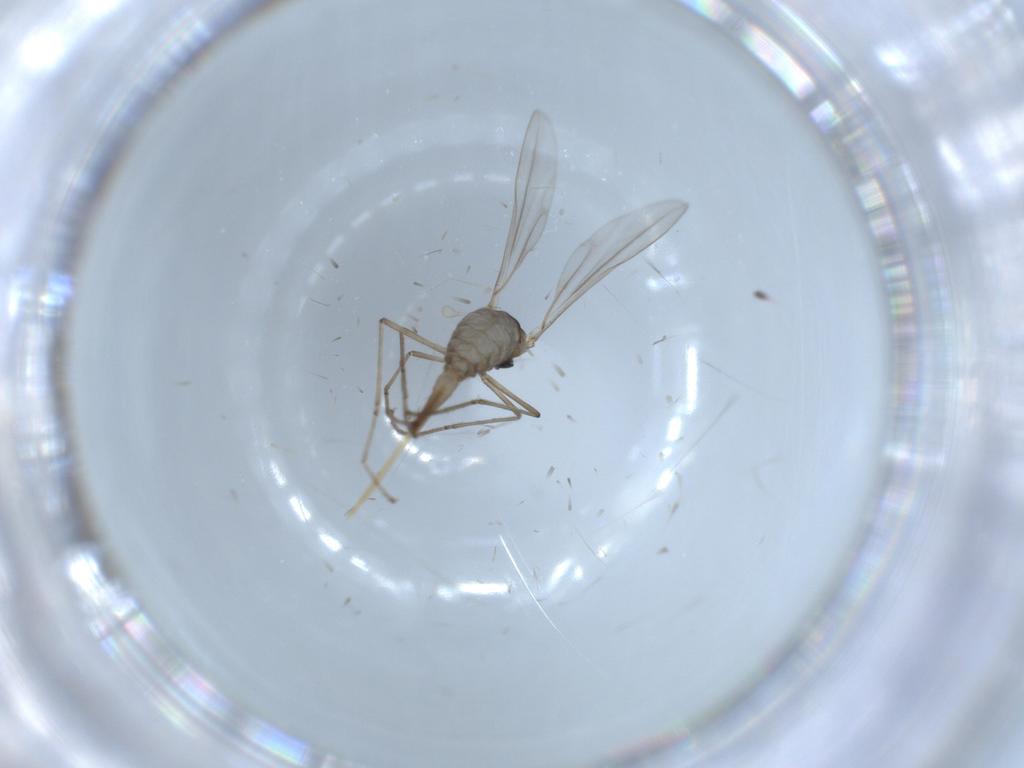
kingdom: Animalia
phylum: Arthropoda
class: Insecta
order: Diptera
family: Cecidomyiidae
